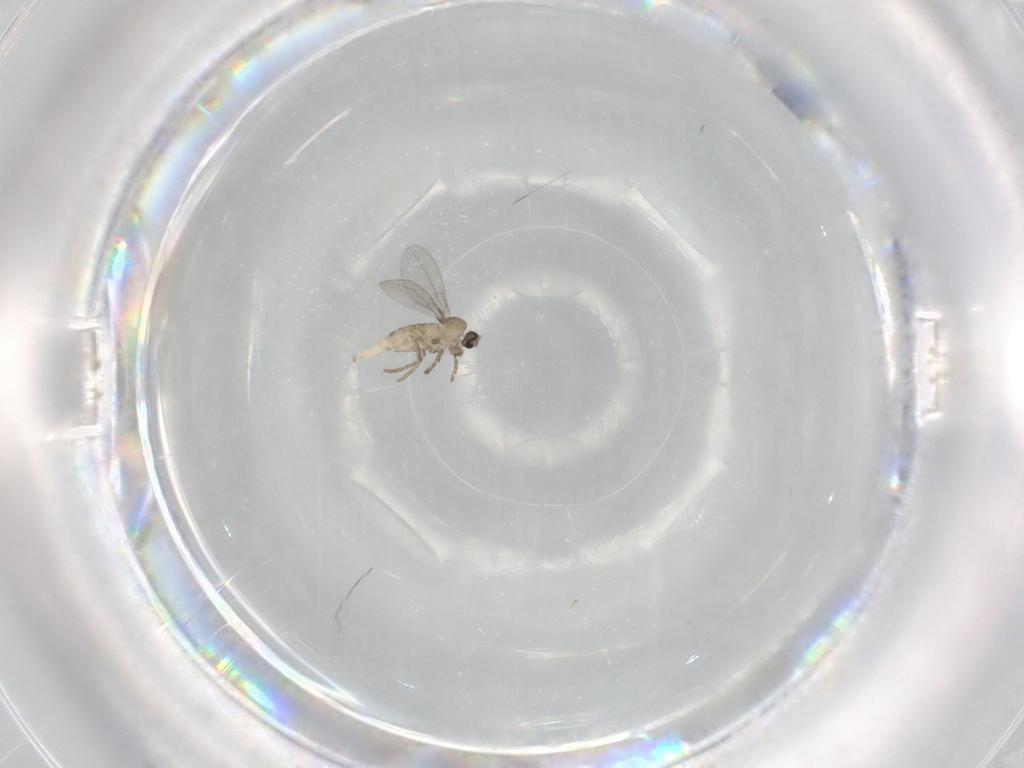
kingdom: Animalia
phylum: Arthropoda
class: Insecta
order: Diptera
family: Cecidomyiidae
